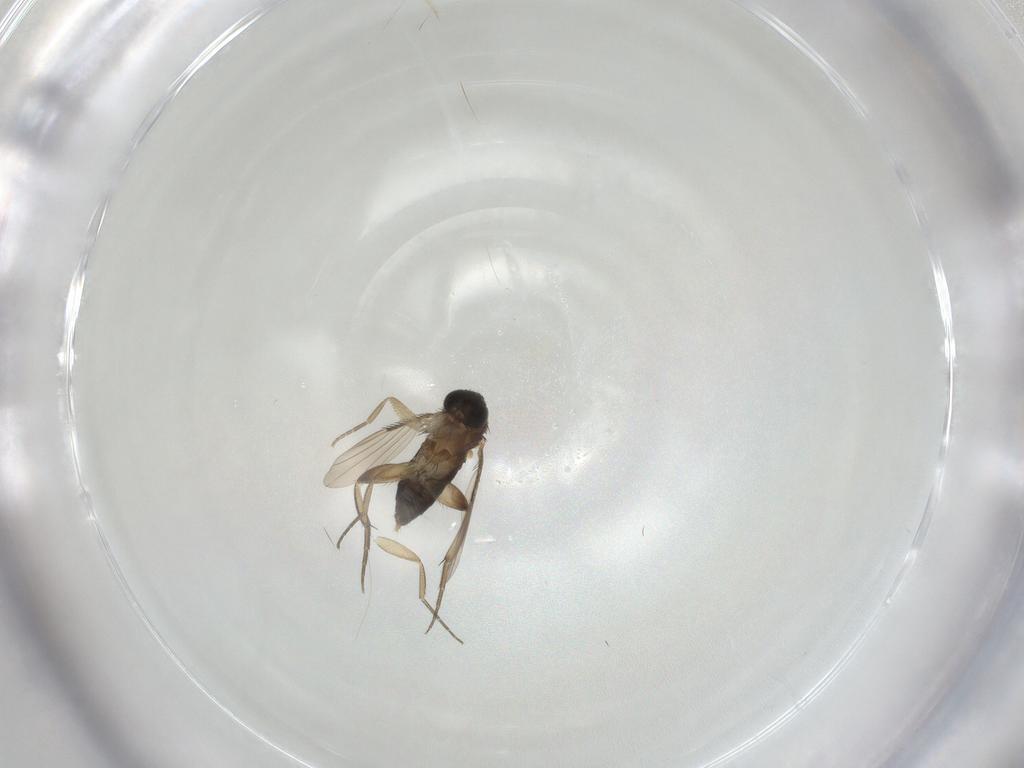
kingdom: Animalia
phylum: Arthropoda
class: Insecta
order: Diptera
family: Phoridae
